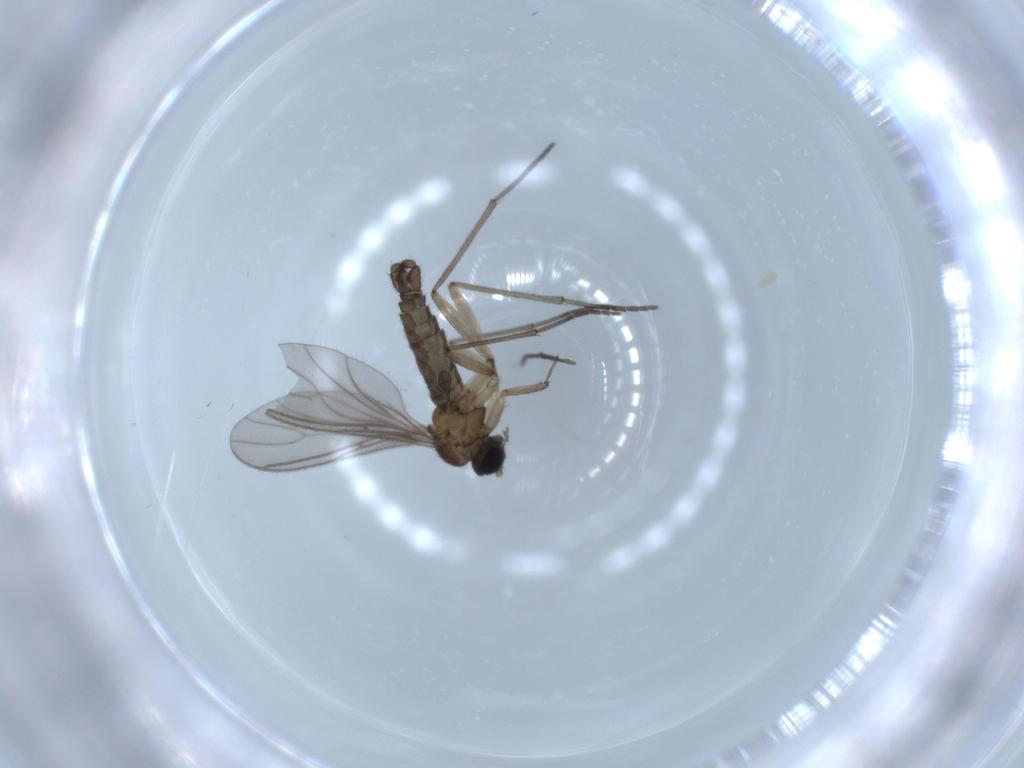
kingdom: Animalia
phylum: Arthropoda
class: Insecta
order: Diptera
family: Sciaridae
